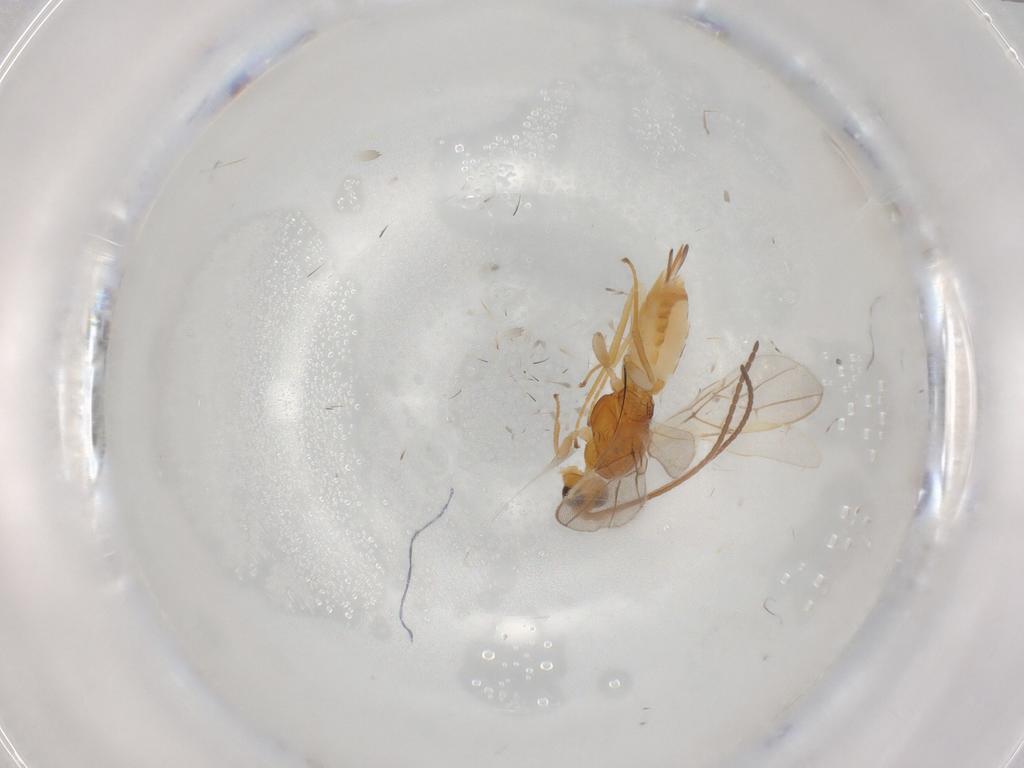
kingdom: Animalia
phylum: Arthropoda
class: Insecta
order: Hymenoptera
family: Braconidae
